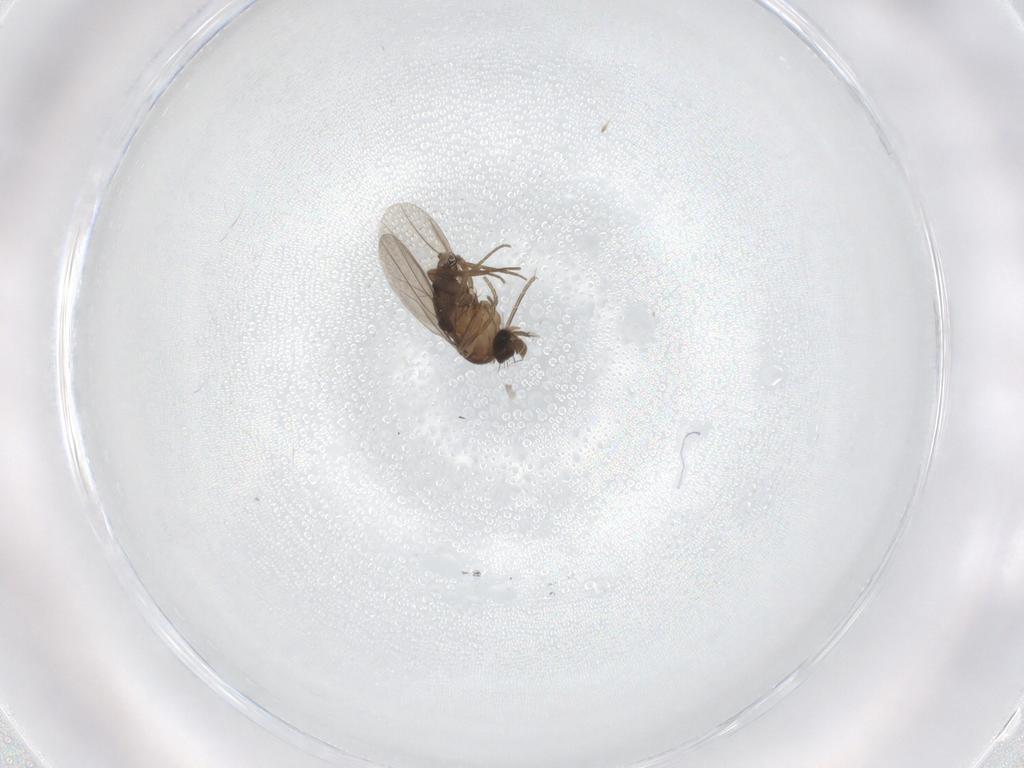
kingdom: Animalia
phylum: Arthropoda
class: Insecta
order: Diptera
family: Phoridae
